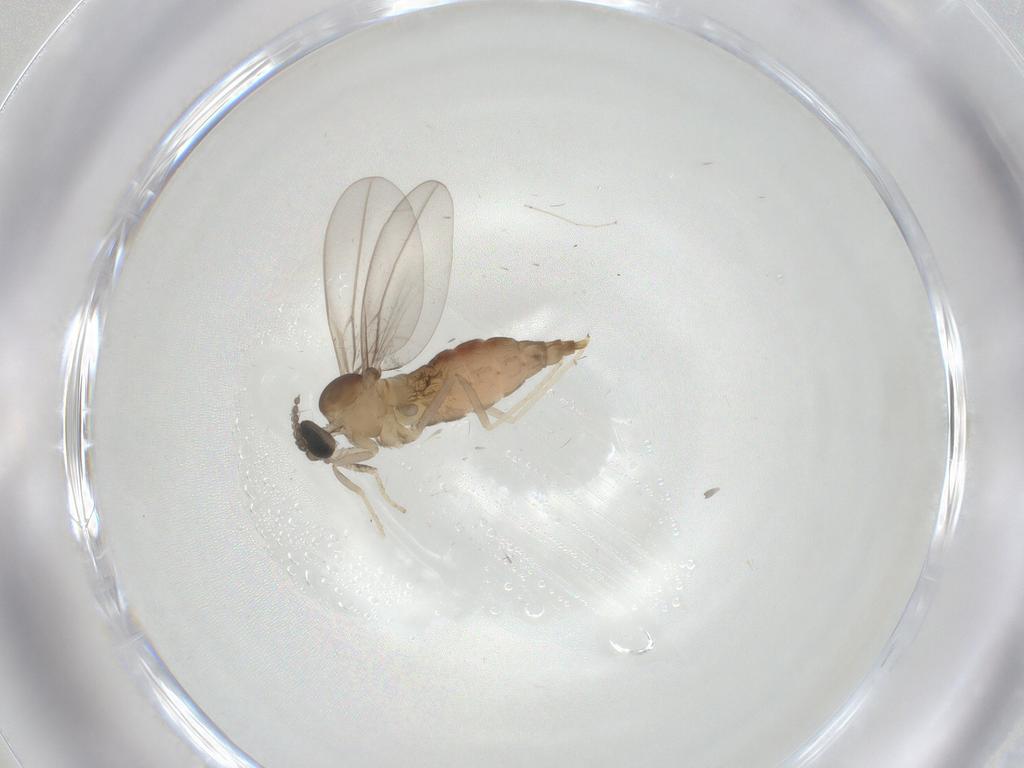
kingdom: Animalia
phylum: Arthropoda
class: Insecta
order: Diptera
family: Cecidomyiidae
